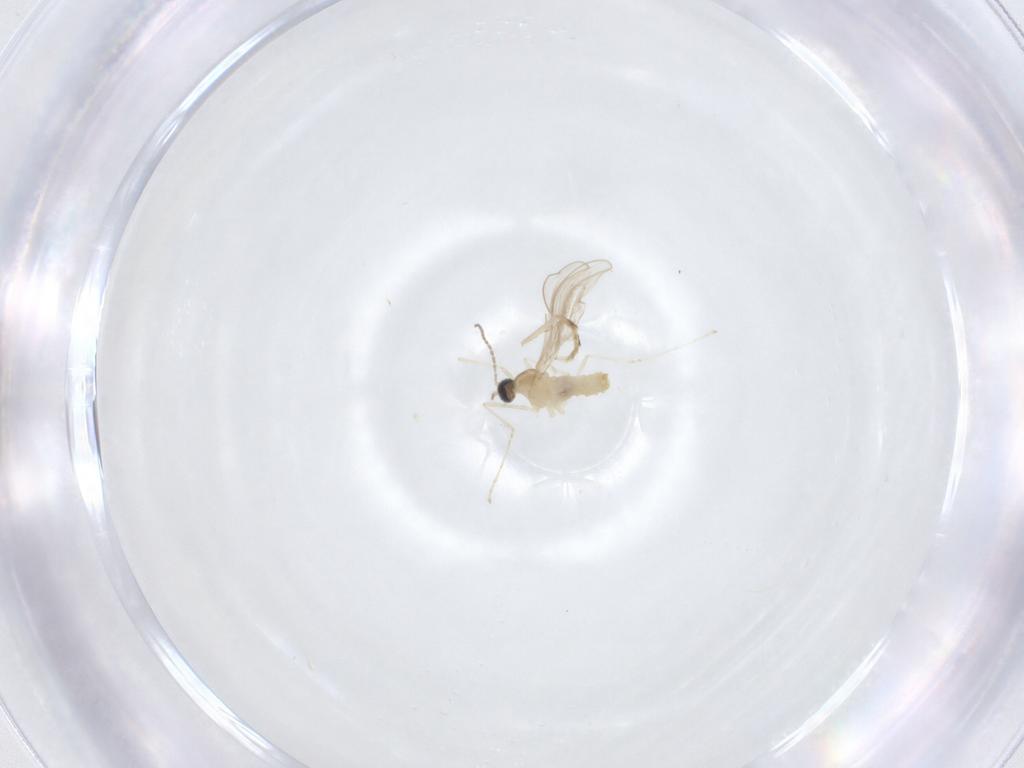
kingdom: Animalia
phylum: Arthropoda
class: Insecta
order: Diptera
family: Cecidomyiidae
